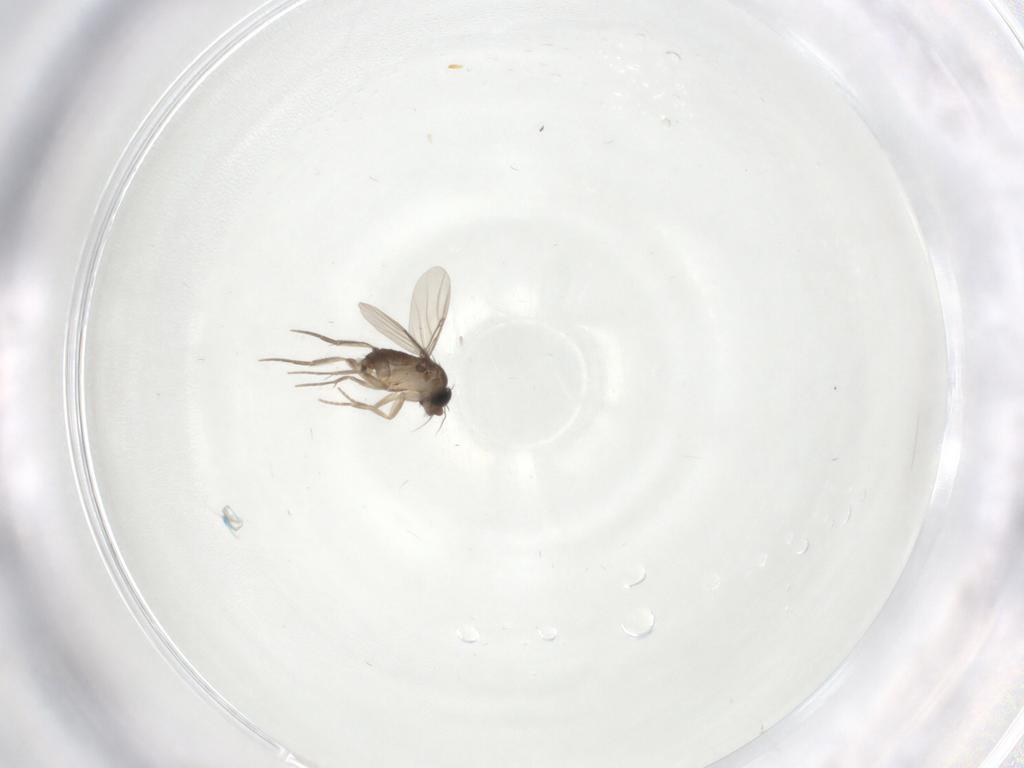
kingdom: Animalia
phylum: Arthropoda
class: Insecta
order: Diptera
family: Phoridae
